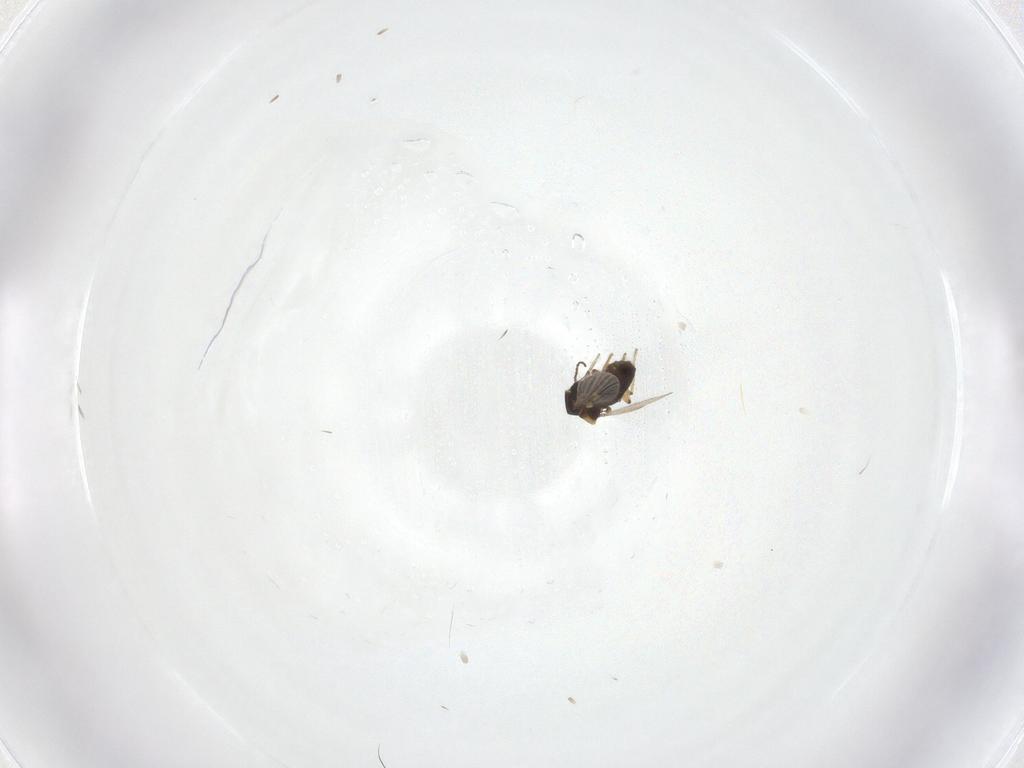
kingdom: Animalia
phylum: Arthropoda
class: Insecta
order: Diptera
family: Ceratopogonidae
